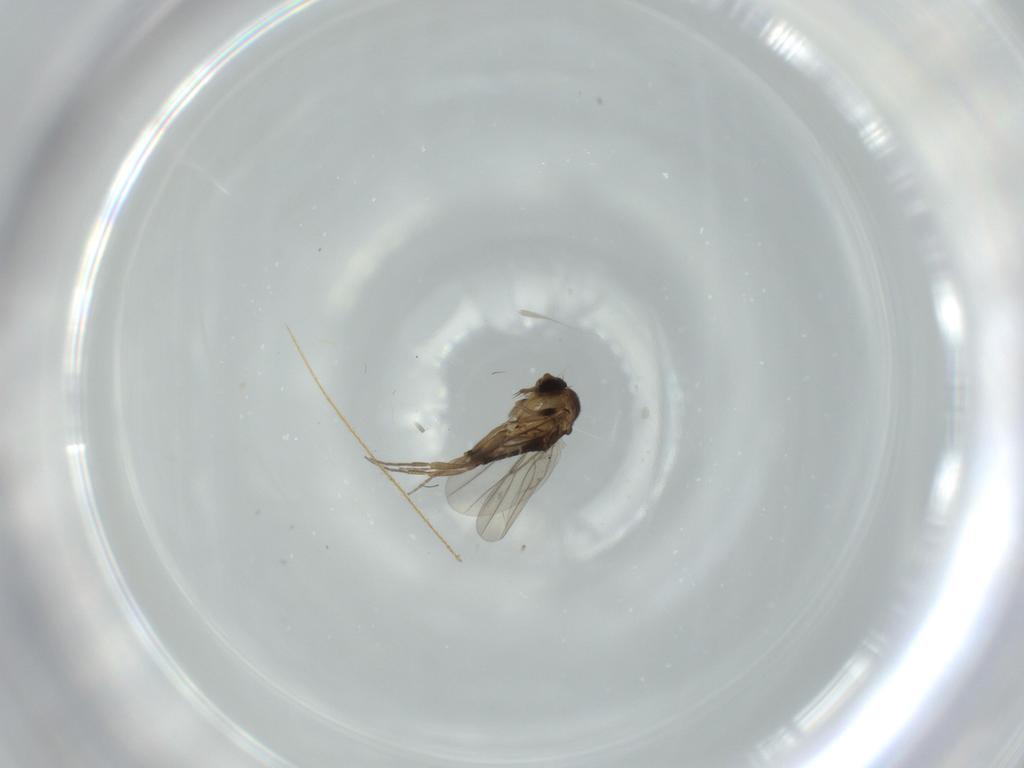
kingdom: Animalia
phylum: Arthropoda
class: Insecta
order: Diptera
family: Phoridae
